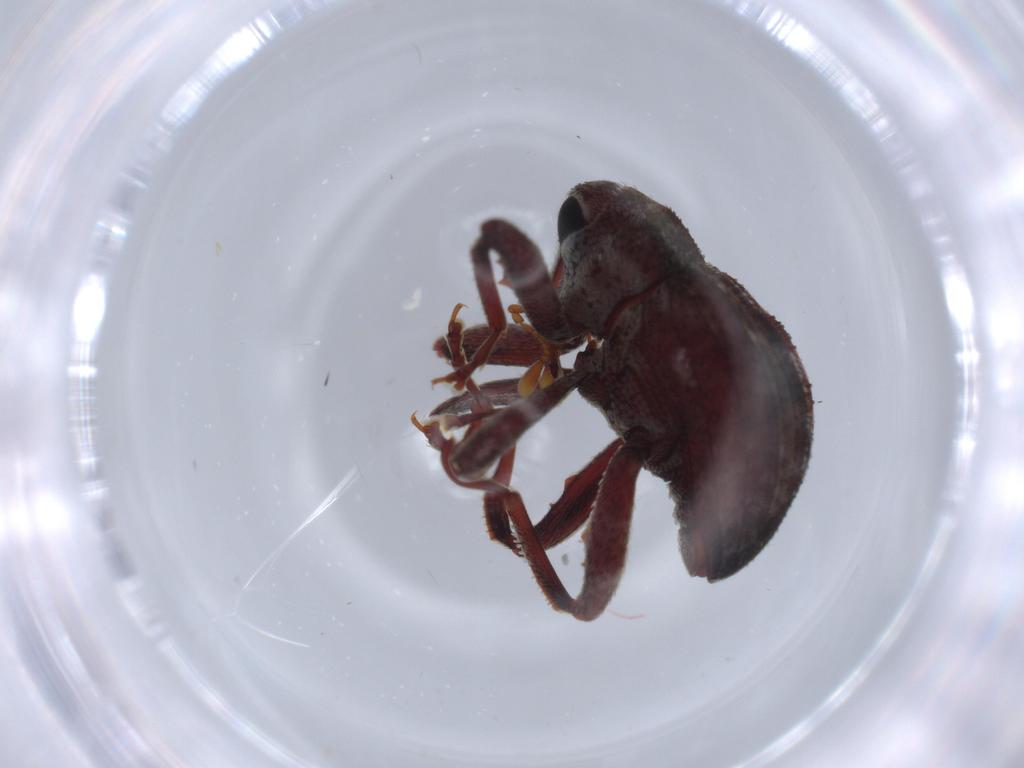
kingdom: Animalia
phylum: Arthropoda
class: Insecta
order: Coleoptera
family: Curculionidae
